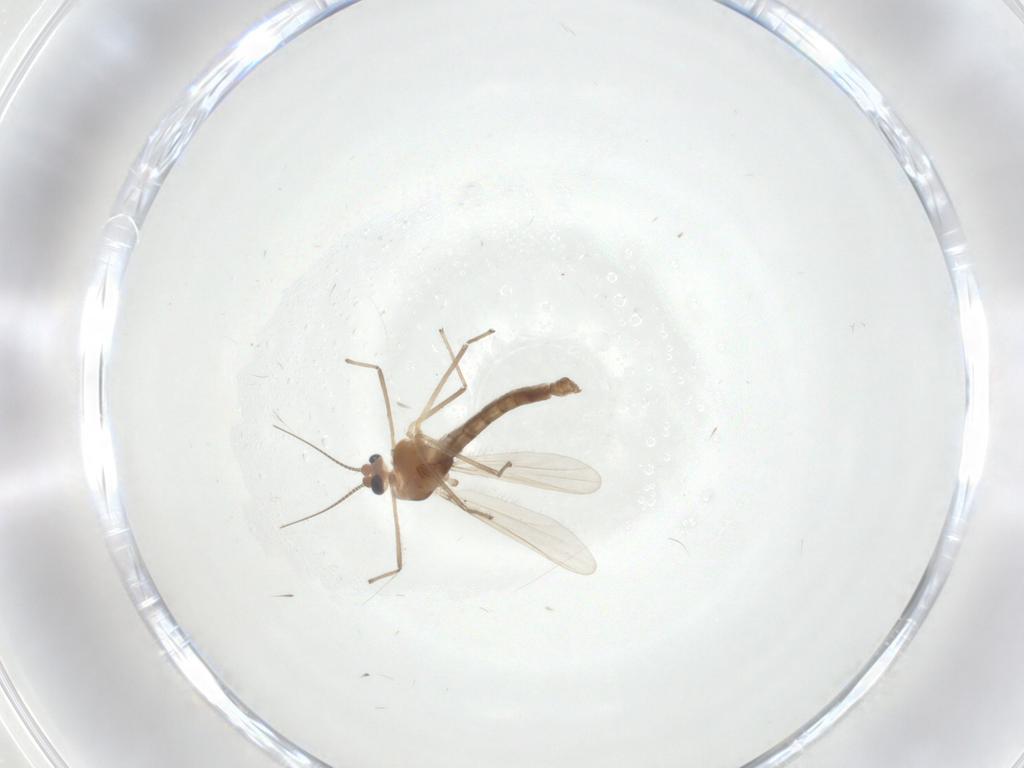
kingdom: Animalia
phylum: Arthropoda
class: Insecta
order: Diptera
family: Chironomidae
